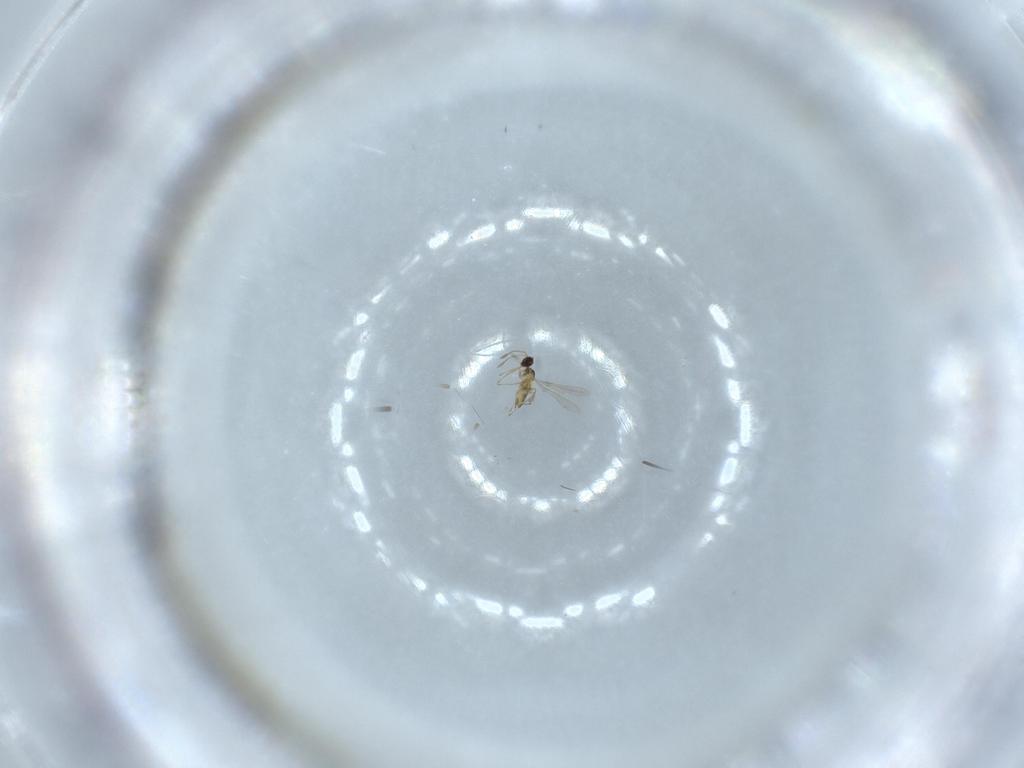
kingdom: Animalia
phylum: Arthropoda
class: Insecta
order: Hymenoptera
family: Mymaridae
